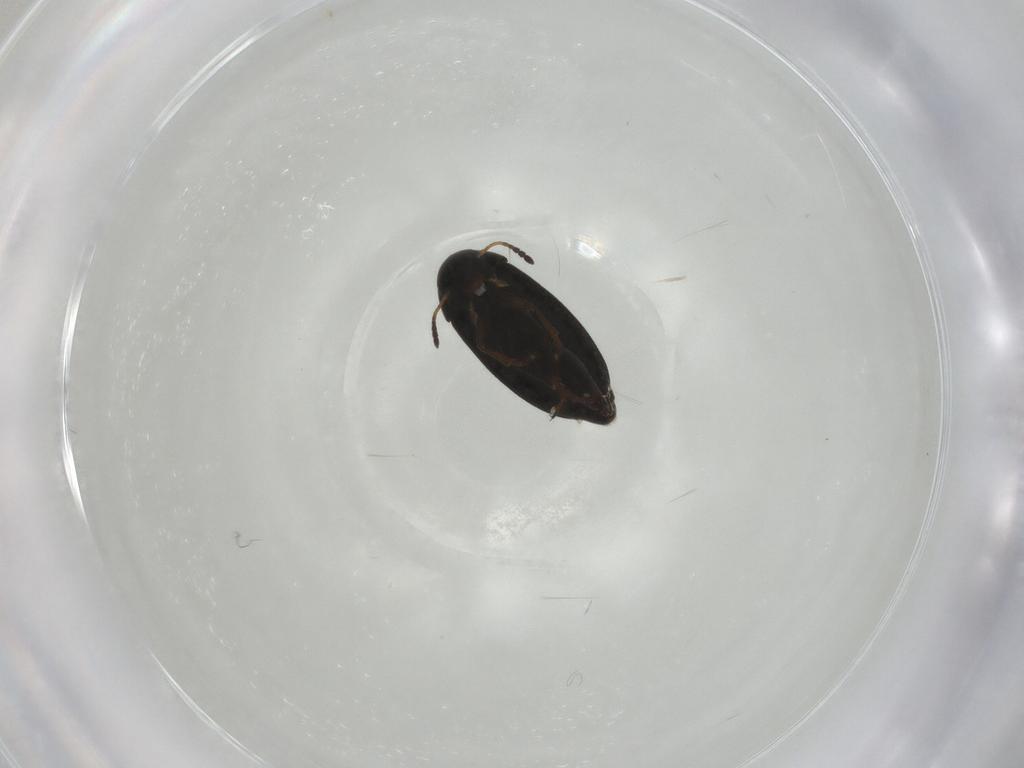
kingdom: Animalia
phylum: Arthropoda
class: Insecta
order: Coleoptera
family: Scraptiidae
